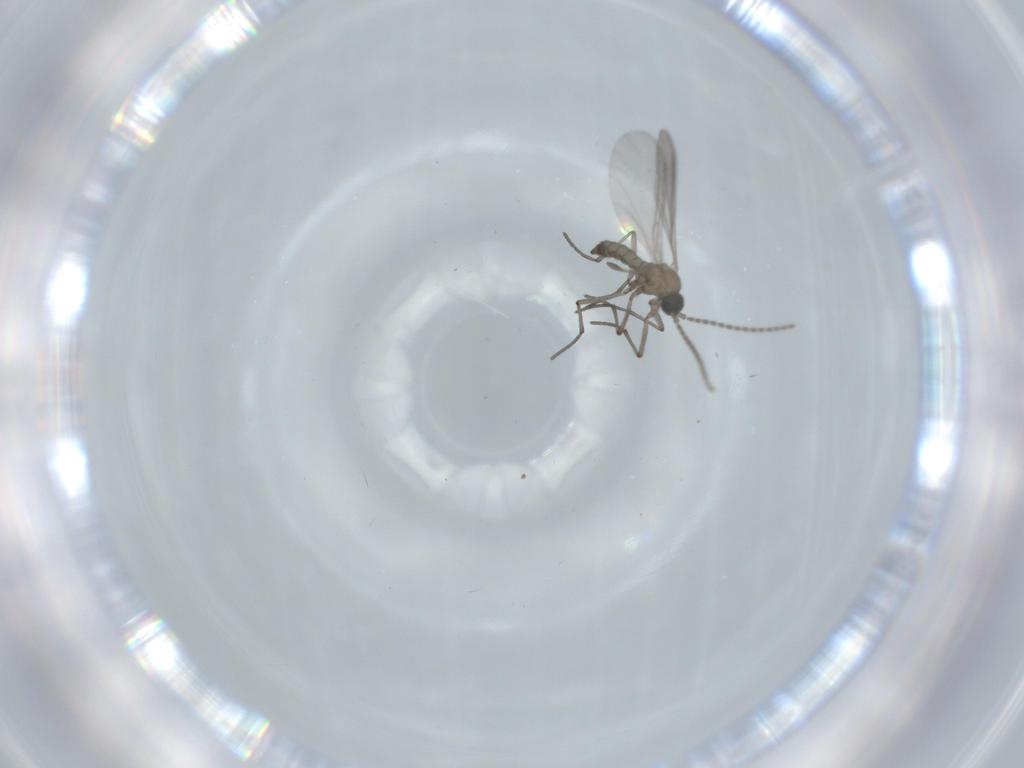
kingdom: Animalia
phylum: Arthropoda
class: Insecta
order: Diptera
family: Sciaridae
